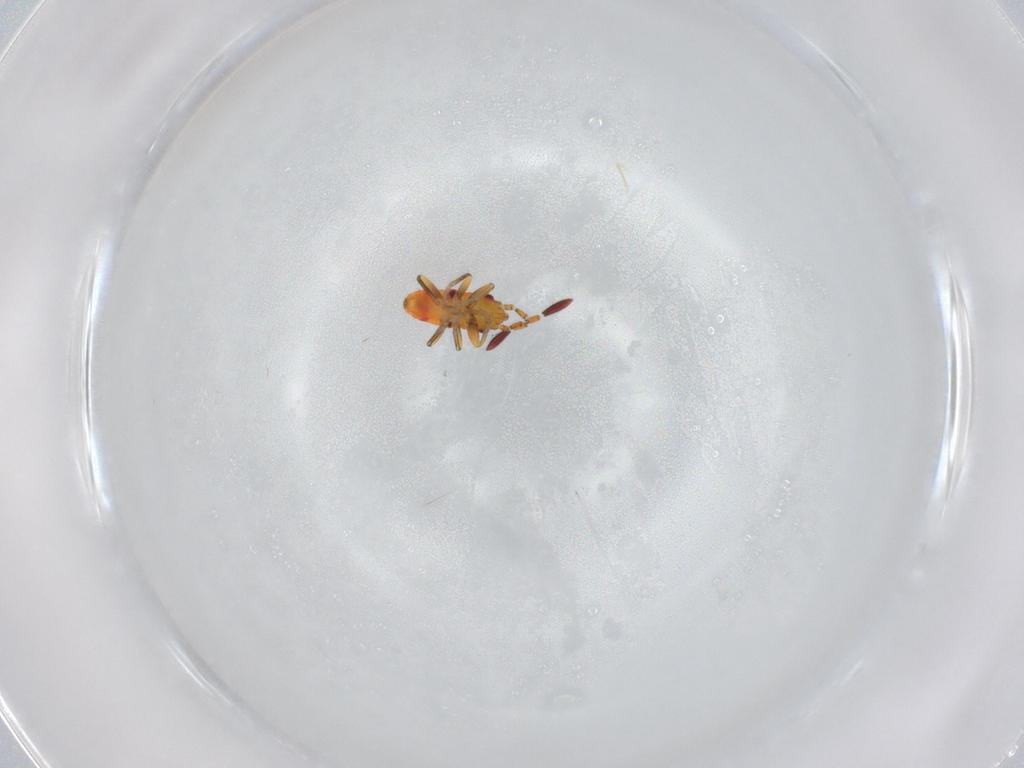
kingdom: Animalia
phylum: Arthropoda
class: Insecta
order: Hemiptera
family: Rhyparochromidae
